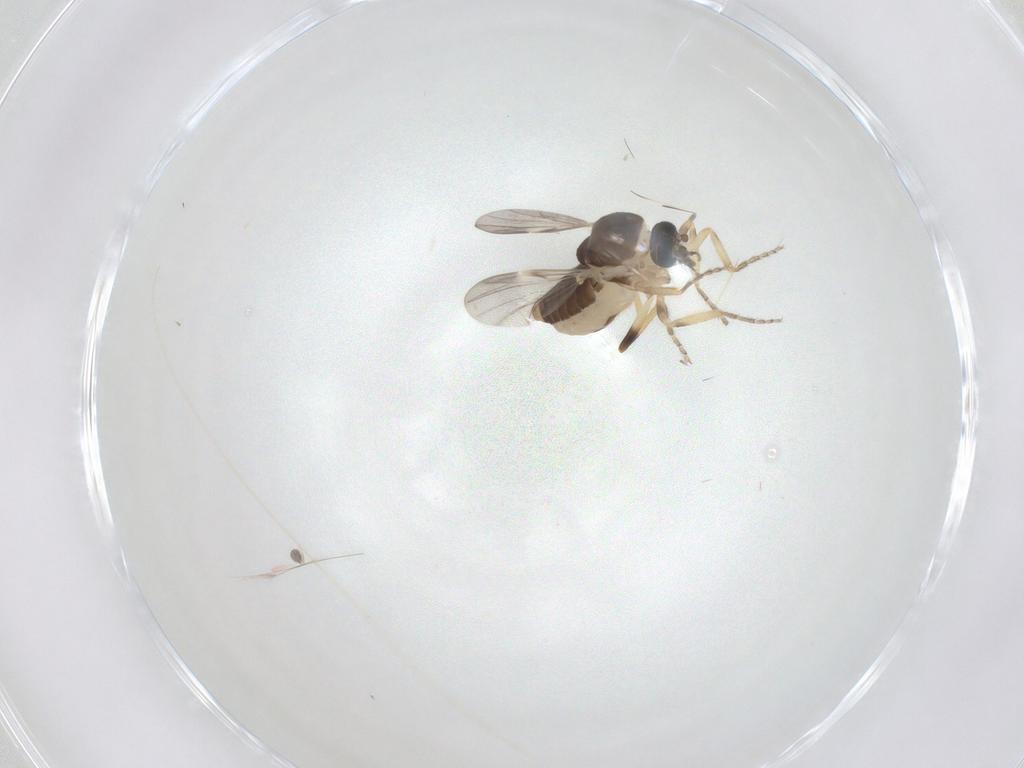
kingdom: Animalia
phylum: Arthropoda
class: Insecta
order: Diptera
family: Ceratopogonidae
